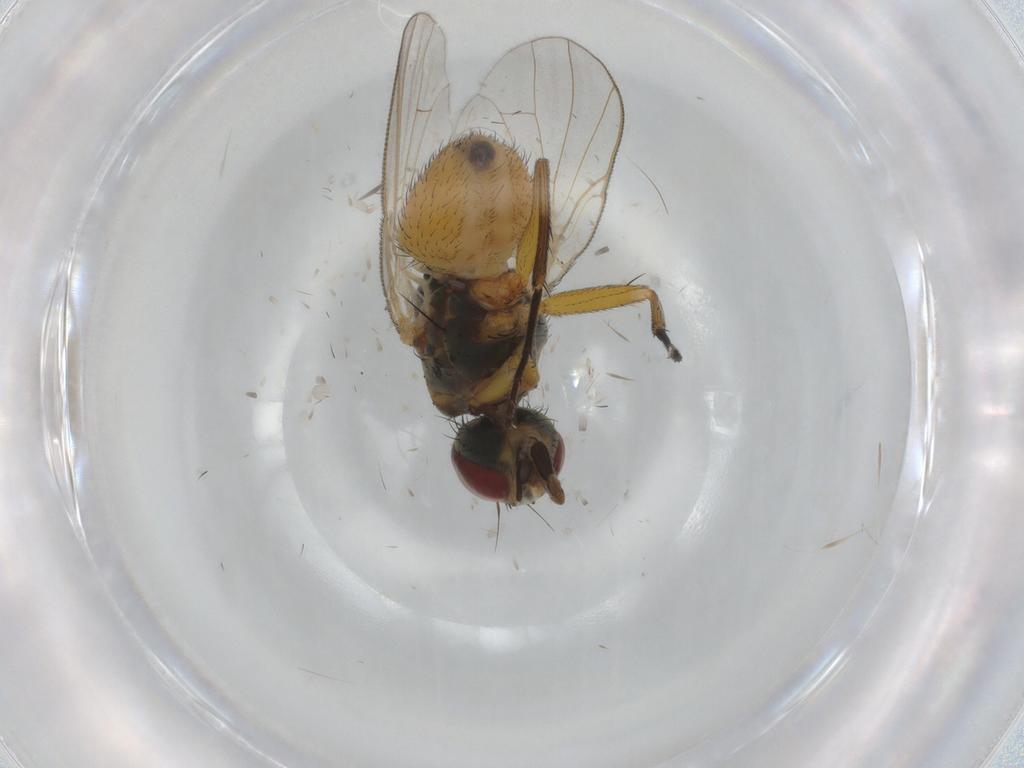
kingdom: Animalia
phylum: Arthropoda
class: Insecta
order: Diptera
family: Muscidae
